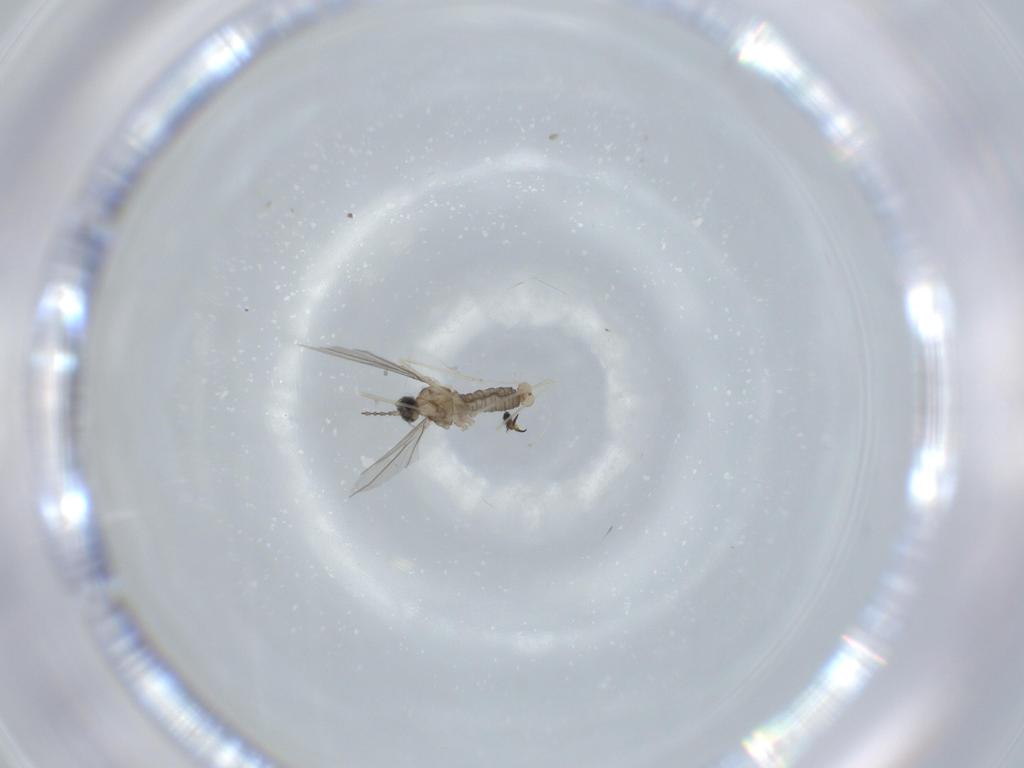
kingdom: Animalia
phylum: Arthropoda
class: Insecta
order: Diptera
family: Cecidomyiidae
